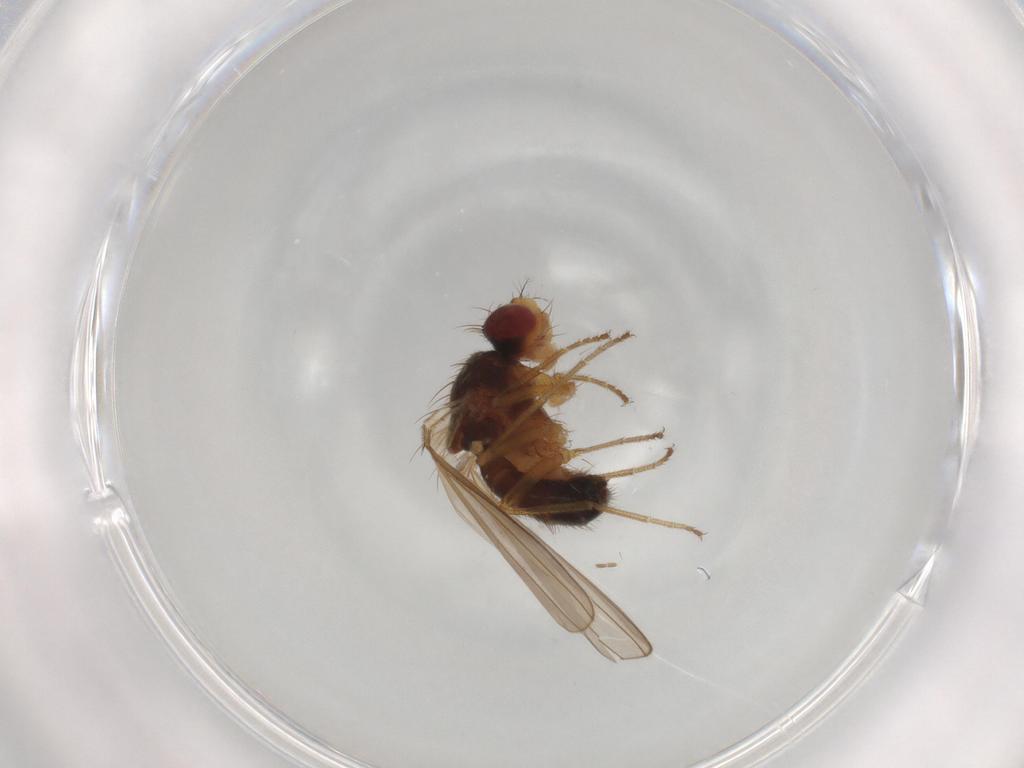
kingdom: Animalia
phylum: Arthropoda
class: Insecta
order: Diptera
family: Drosophilidae
